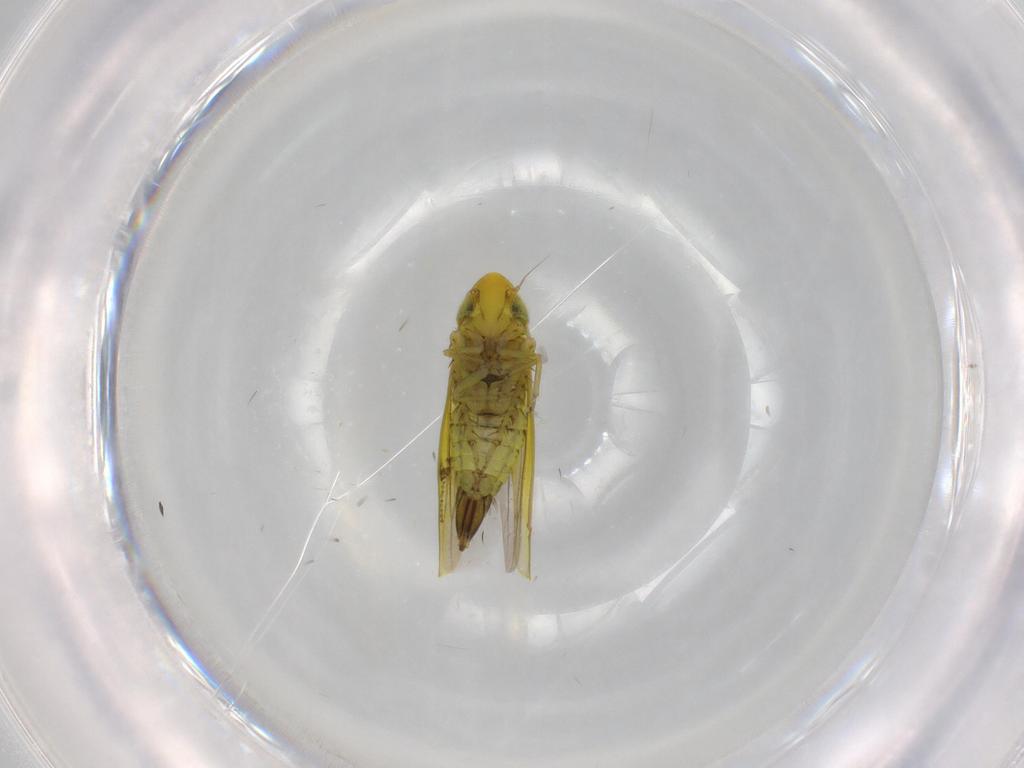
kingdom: Animalia
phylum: Arthropoda
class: Insecta
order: Hemiptera
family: Cicadellidae
